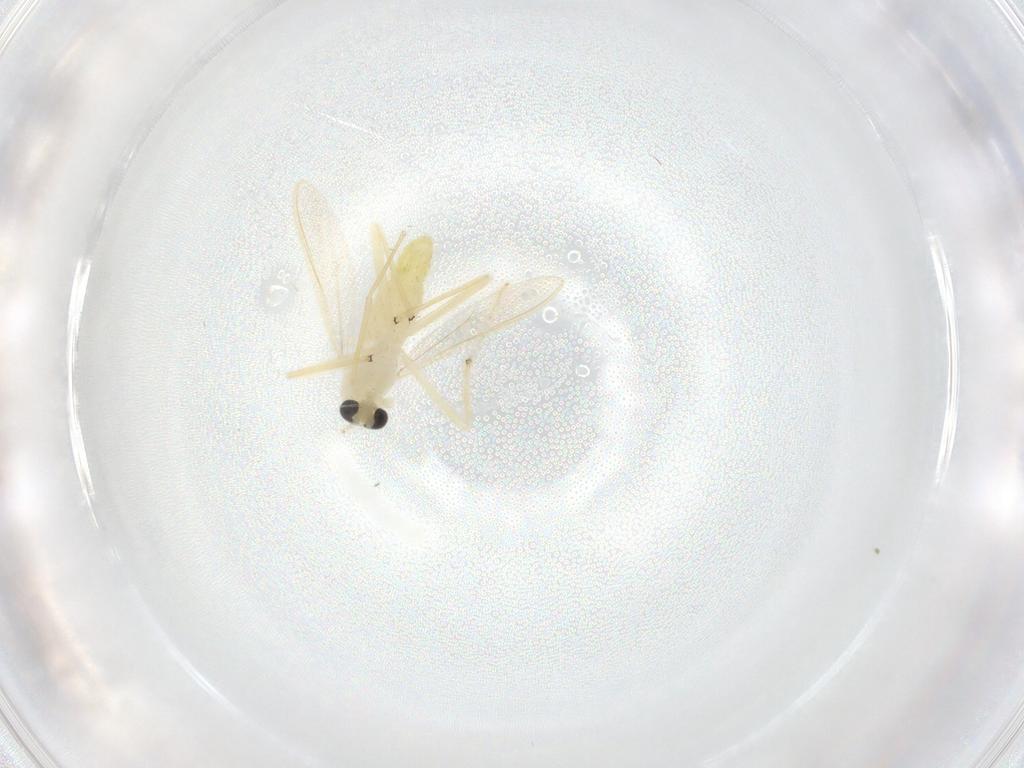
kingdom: Animalia
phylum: Arthropoda
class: Insecta
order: Diptera
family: Chironomidae
